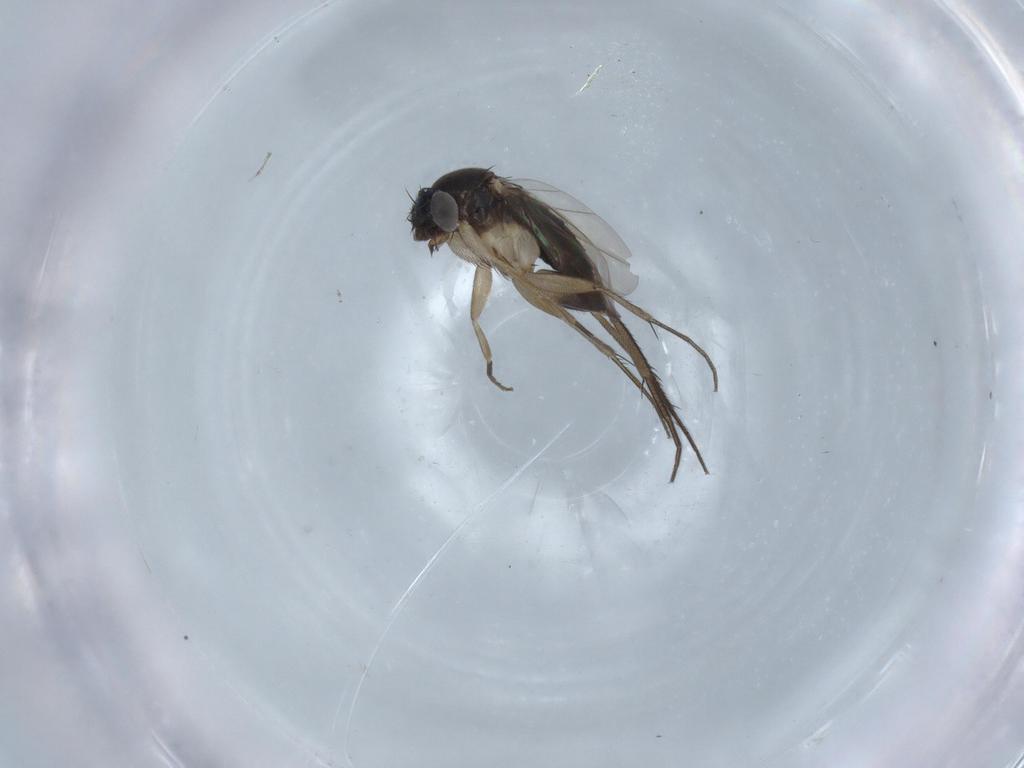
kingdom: Animalia
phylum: Arthropoda
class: Insecta
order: Diptera
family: Phoridae
